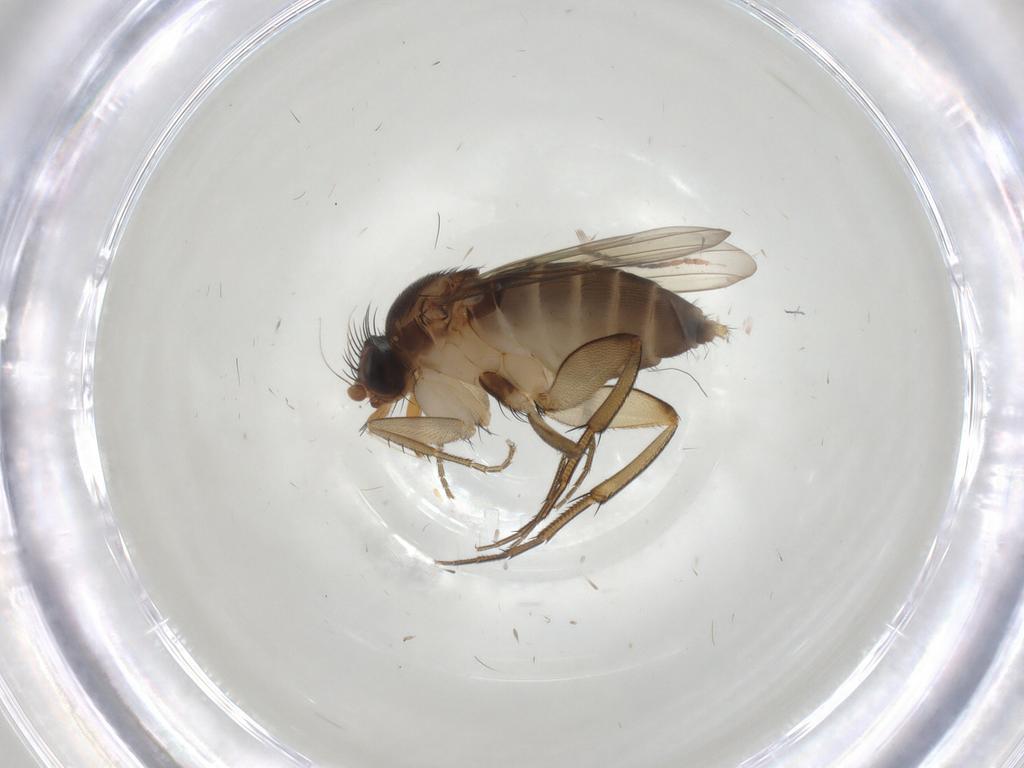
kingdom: Animalia
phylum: Arthropoda
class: Insecta
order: Diptera
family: Phoridae
